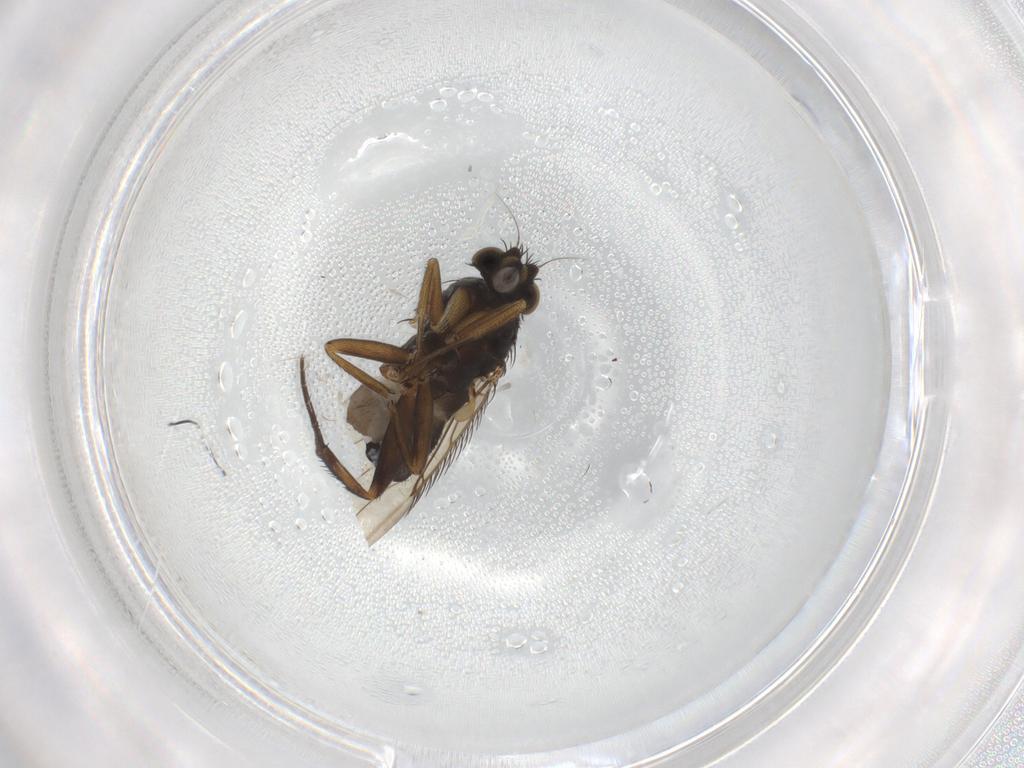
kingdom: Animalia
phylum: Arthropoda
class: Insecta
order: Diptera
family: Phoridae
